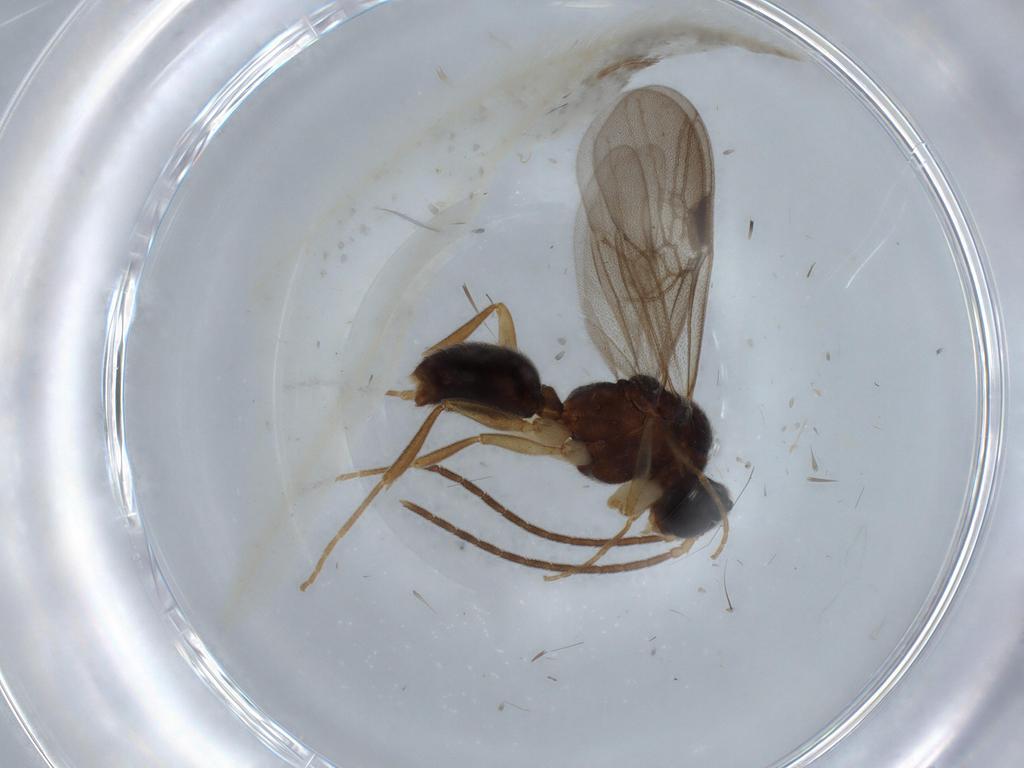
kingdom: Animalia
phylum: Arthropoda
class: Insecta
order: Hymenoptera
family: Formicidae
